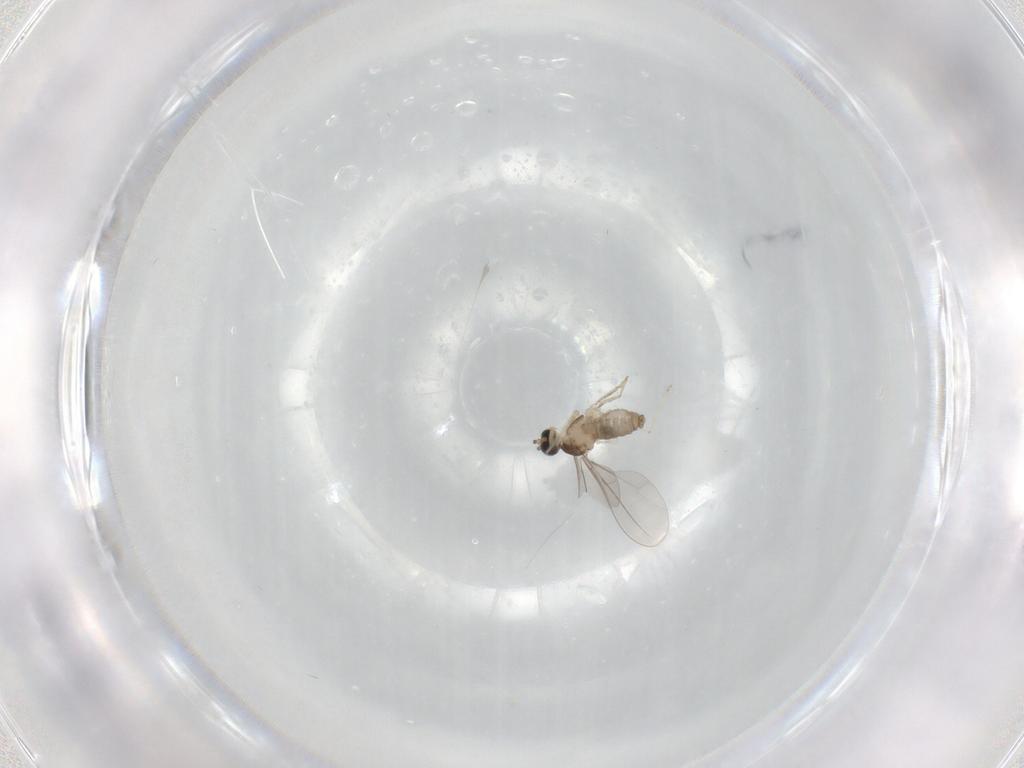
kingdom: Animalia
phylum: Arthropoda
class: Insecta
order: Diptera
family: Cecidomyiidae
